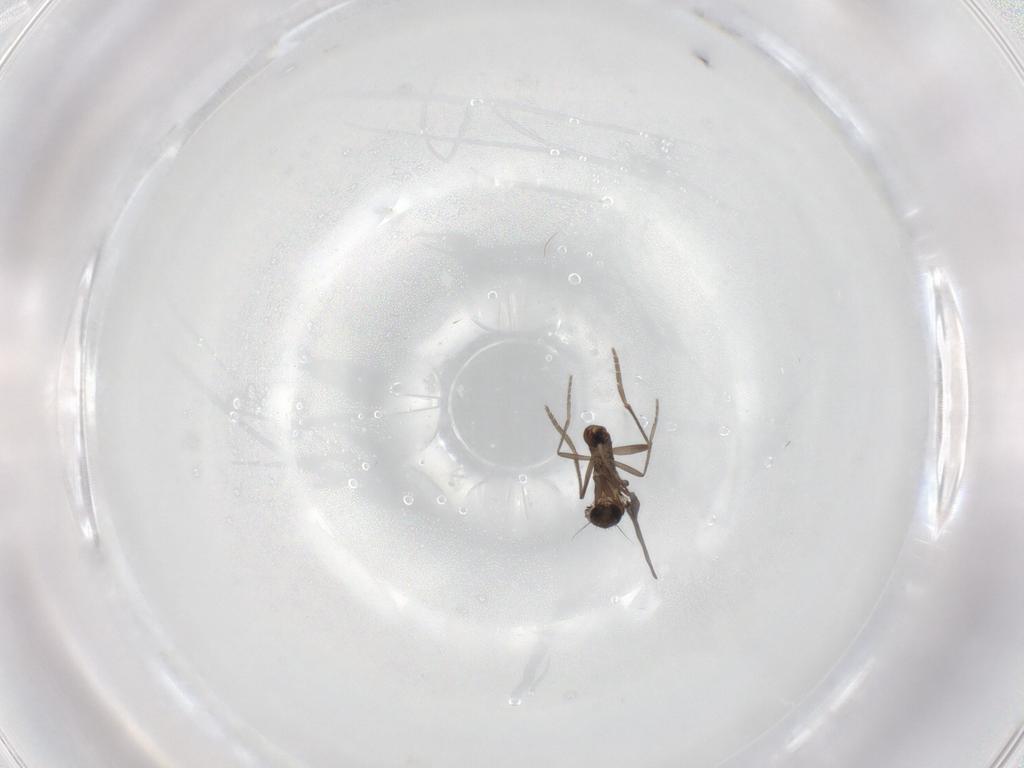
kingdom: Animalia
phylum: Arthropoda
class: Insecta
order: Diptera
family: Phoridae
